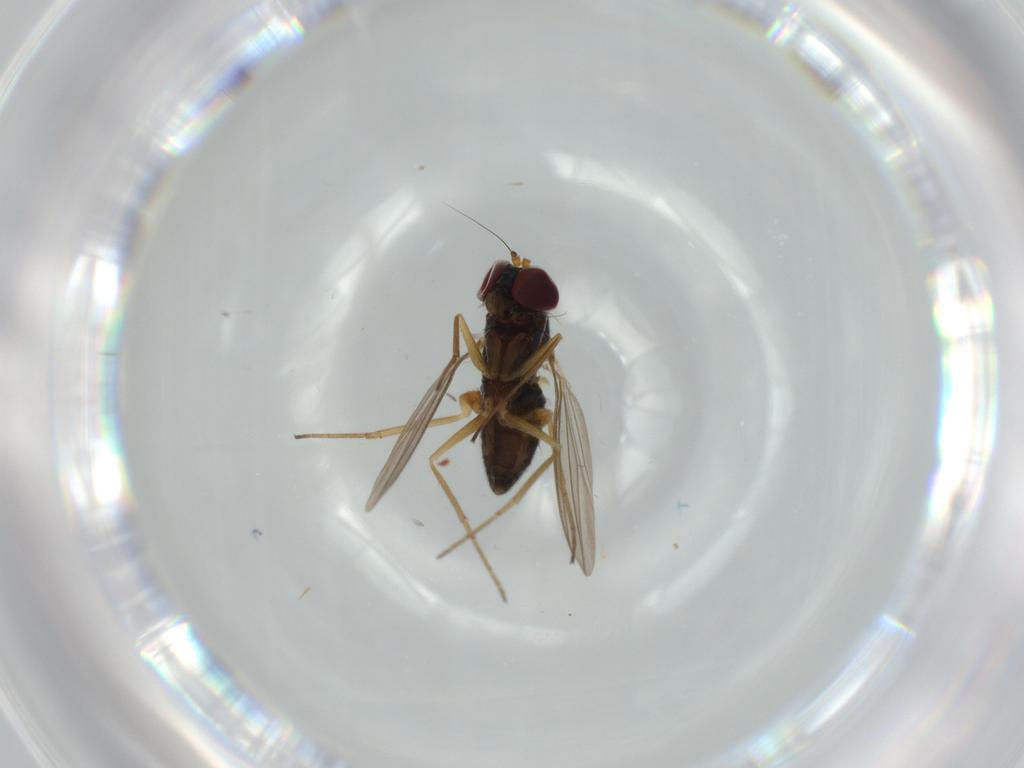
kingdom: Animalia
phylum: Arthropoda
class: Insecta
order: Diptera
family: Dolichopodidae
